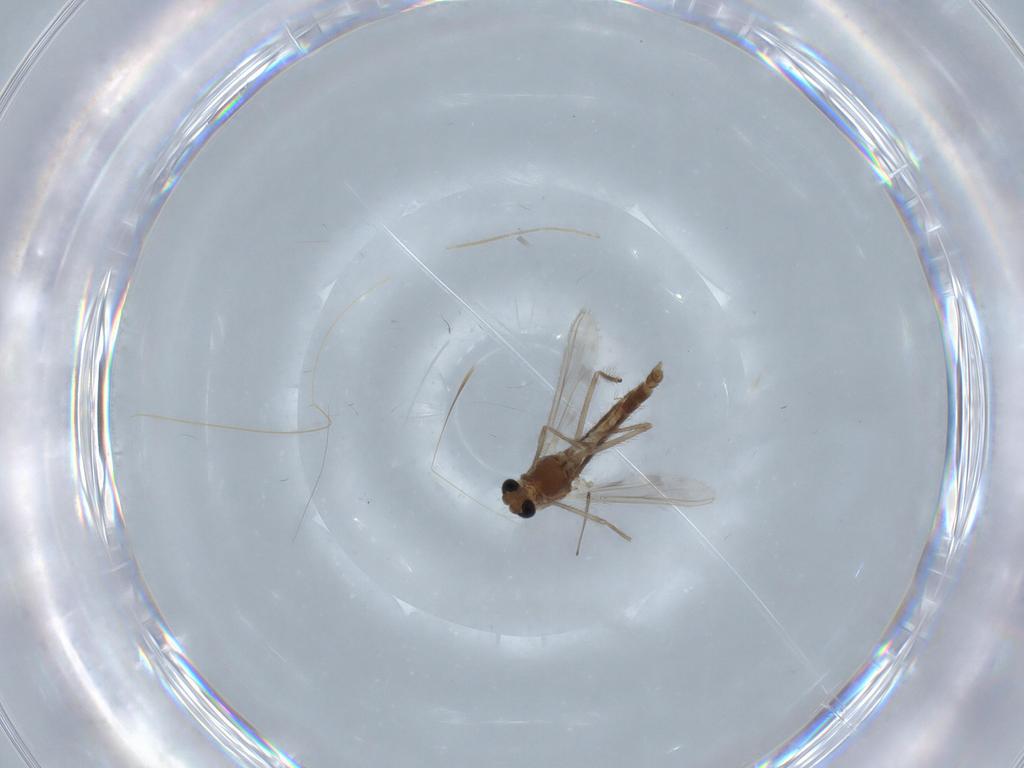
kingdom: Animalia
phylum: Arthropoda
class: Insecta
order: Diptera
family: Chironomidae
